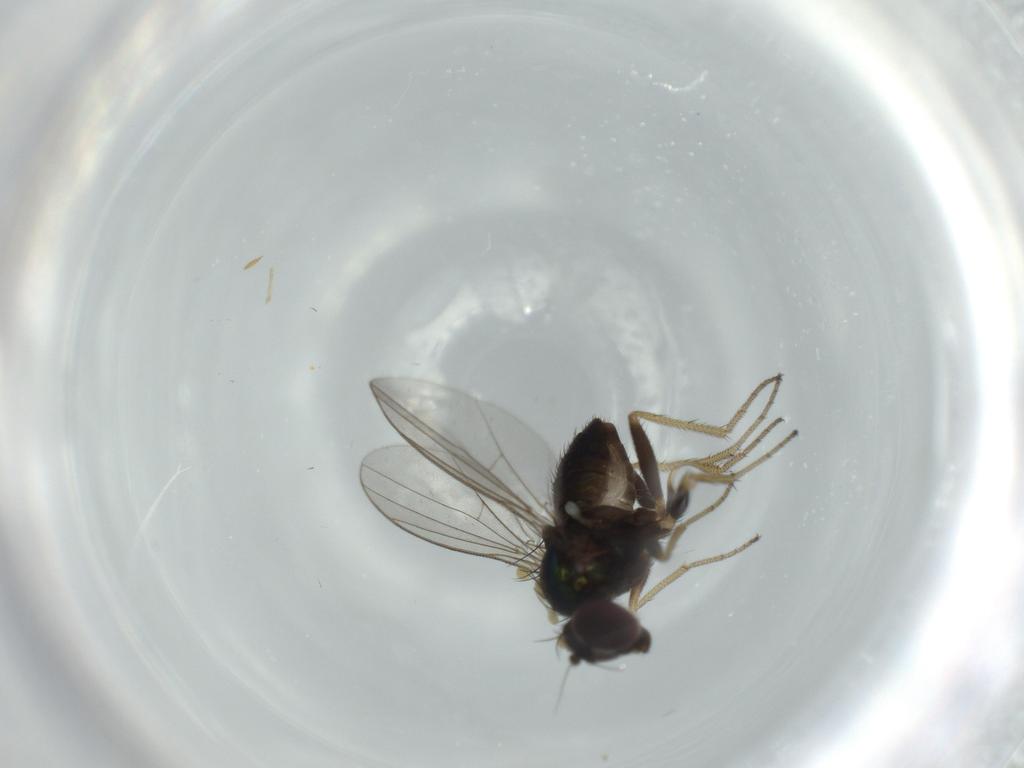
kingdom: Animalia
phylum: Arthropoda
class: Insecta
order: Diptera
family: Dolichopodidae
